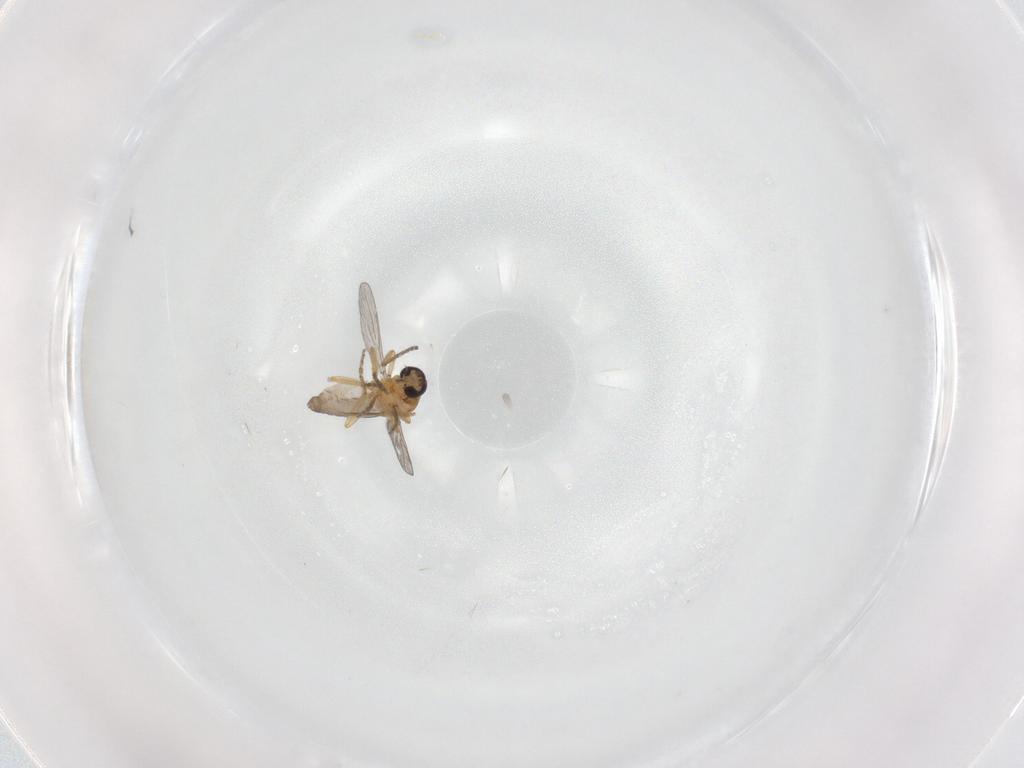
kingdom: Animalia
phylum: Arthropoda
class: Insecta
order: Diptera
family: Ceratopogonidae
